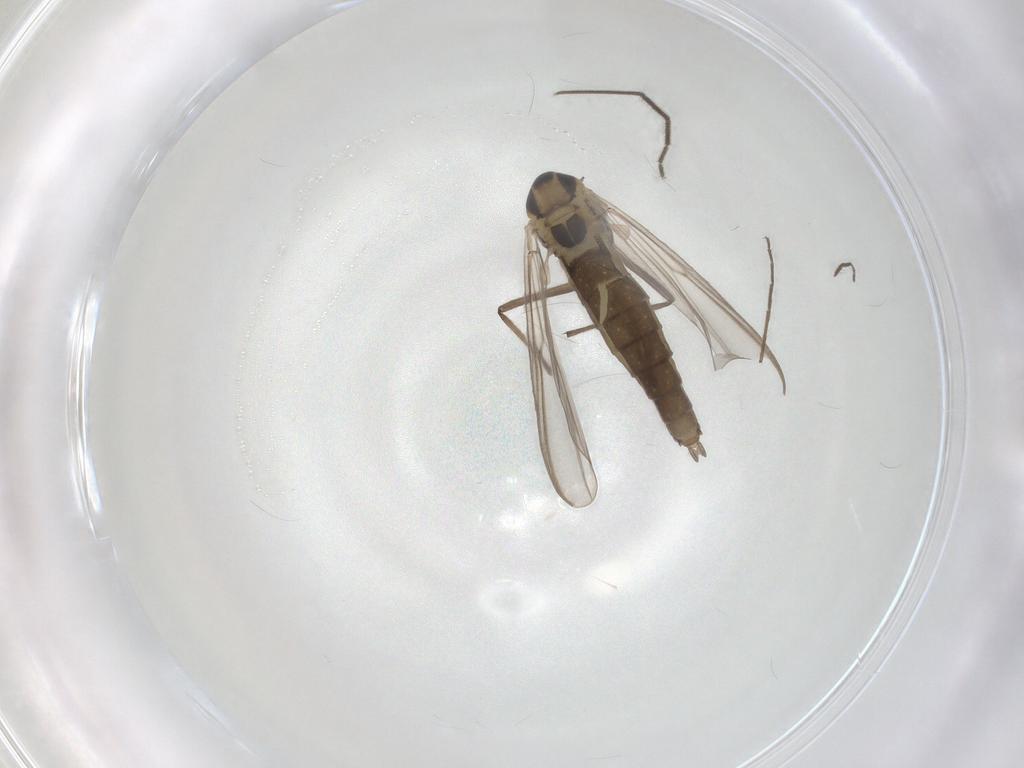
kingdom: Animalia
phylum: Arthropoda
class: Insecta
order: Diptera
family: Chironomidae
